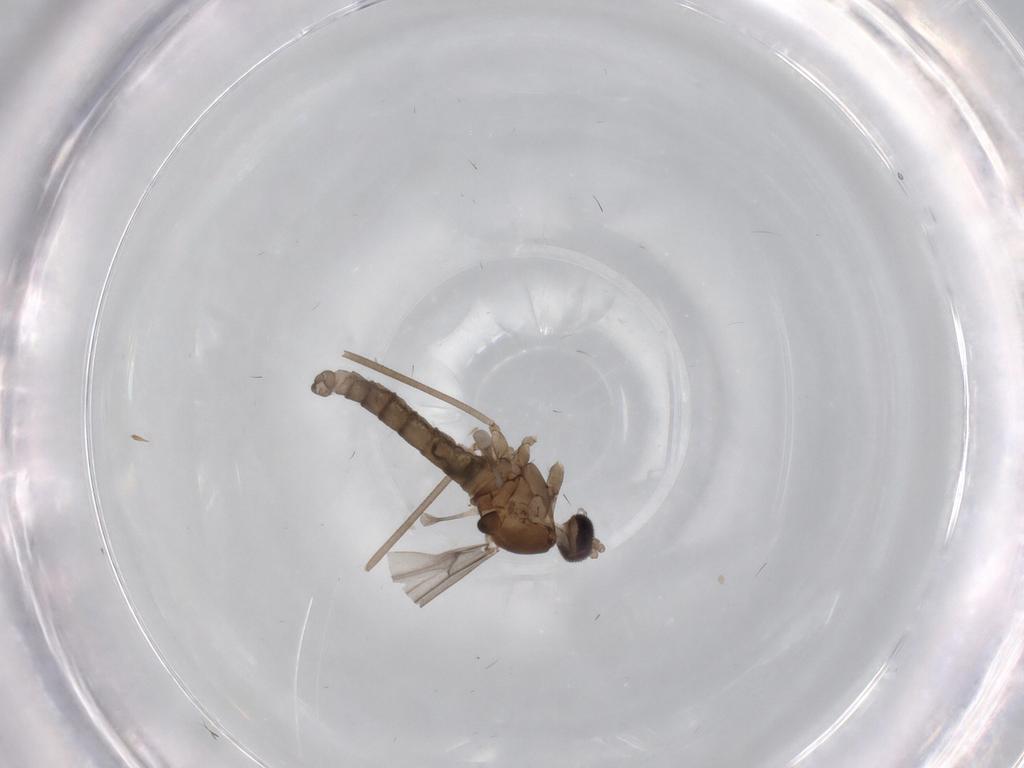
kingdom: Animalia
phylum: Arthropoda
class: Insecta
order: Diptera
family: Cecidomyiidae
